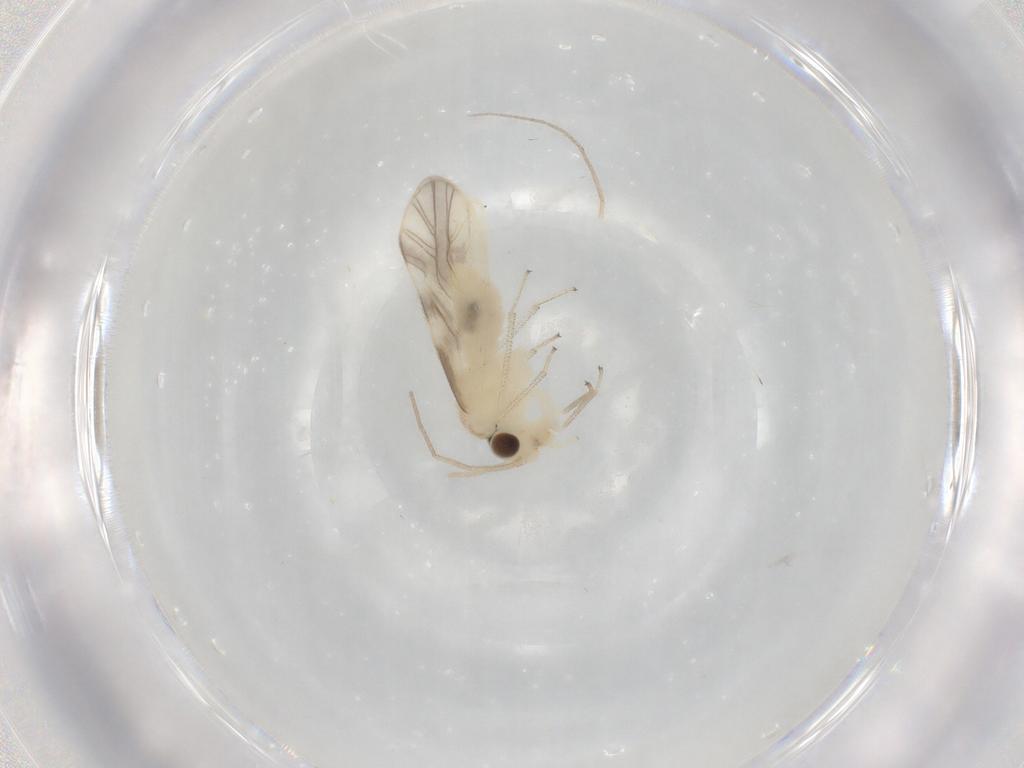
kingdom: Animalia
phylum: Arthropoda
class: Insecta
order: Psocodea
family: Caeciliusidae
